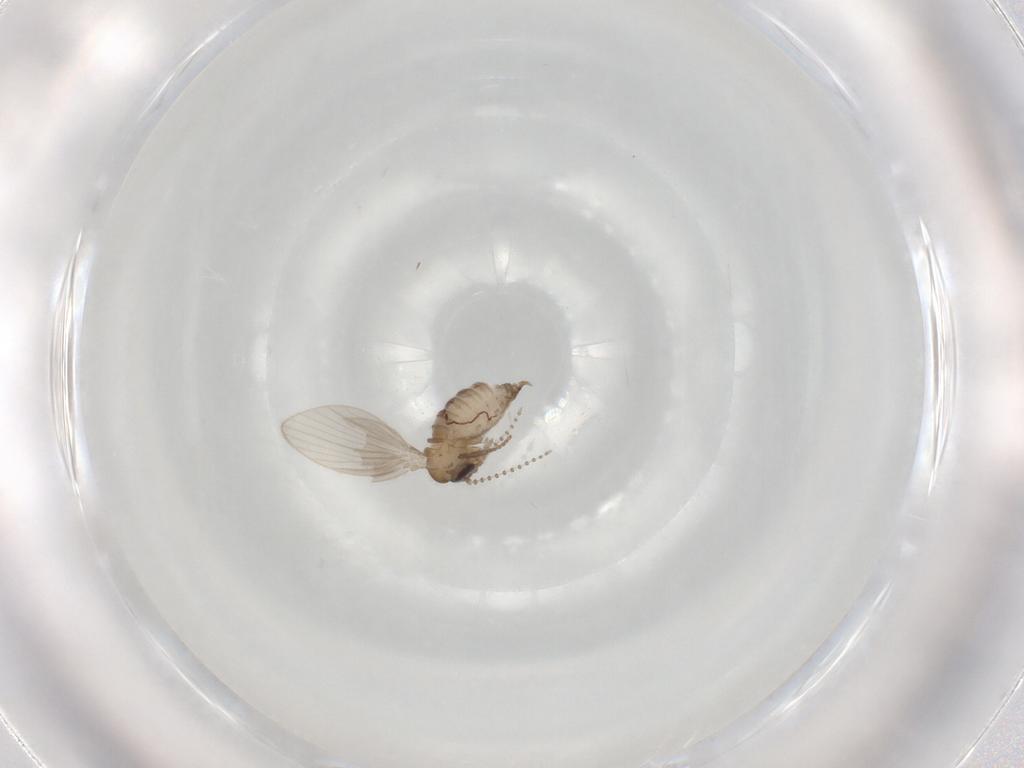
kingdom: Animalia
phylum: Arthropoda
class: Insecta
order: Diptera
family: Psychodidae
